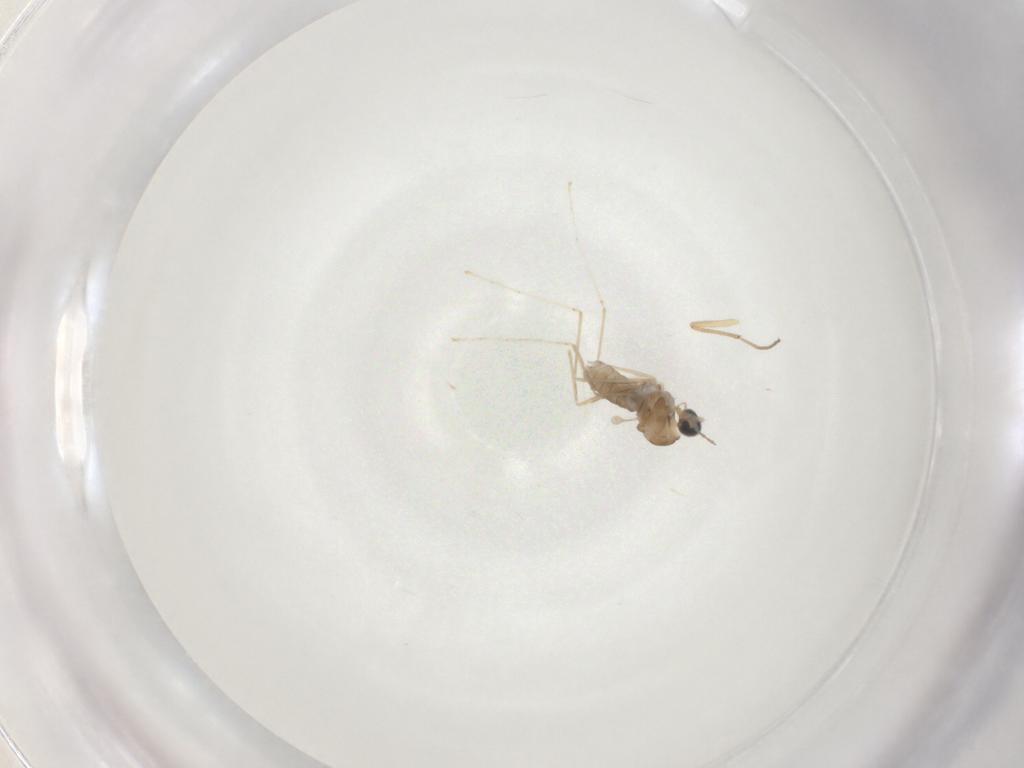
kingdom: Animalia
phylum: Arthropoda
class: Insecta
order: Diptera
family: Cecidomyiidae
